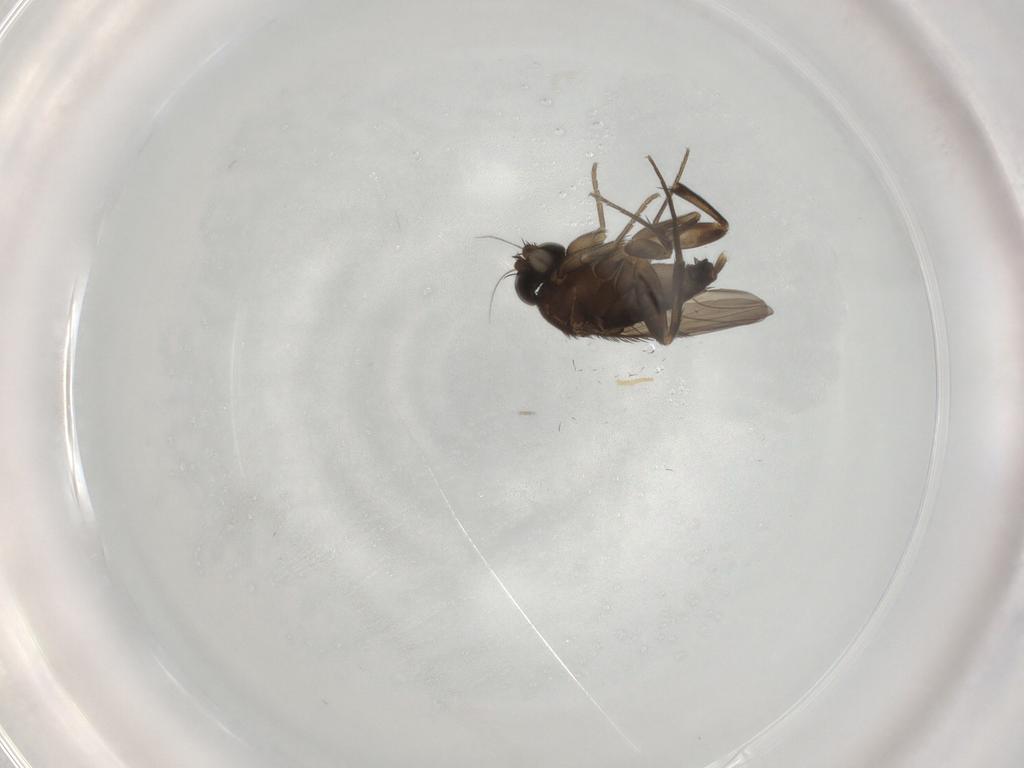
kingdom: Animalia
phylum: Arthropoda
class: Insecta
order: Diptera
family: Phoridae
